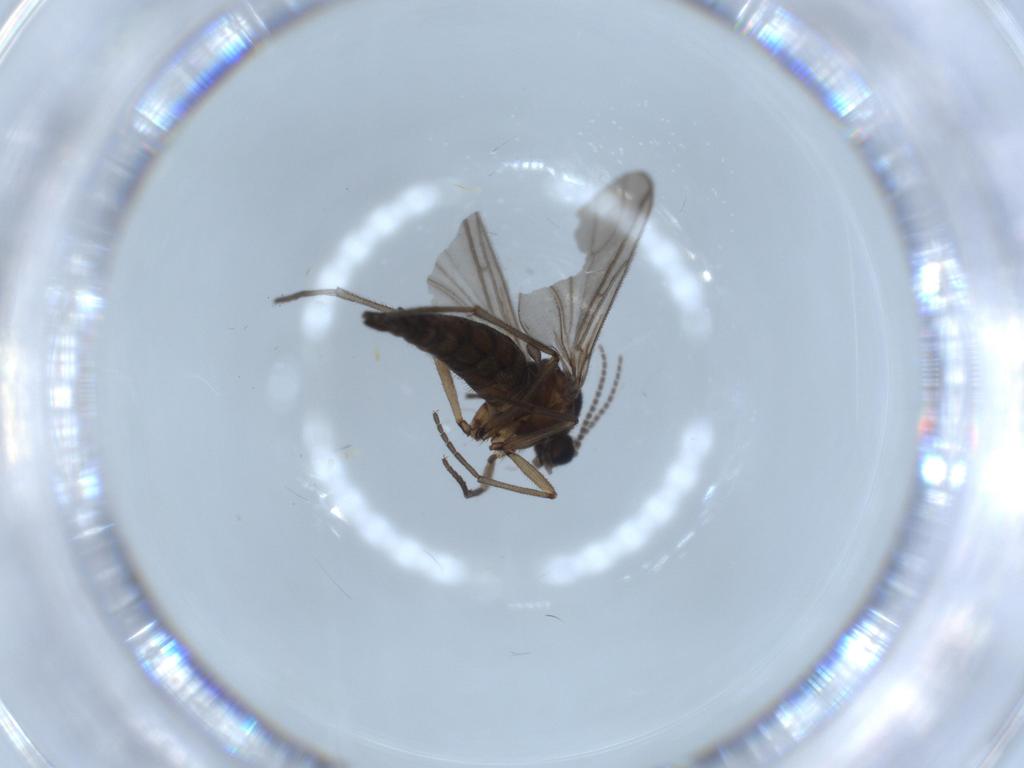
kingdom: Animalia
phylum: Arthropoda
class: Insecta
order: Diptera
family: Sciaridae
